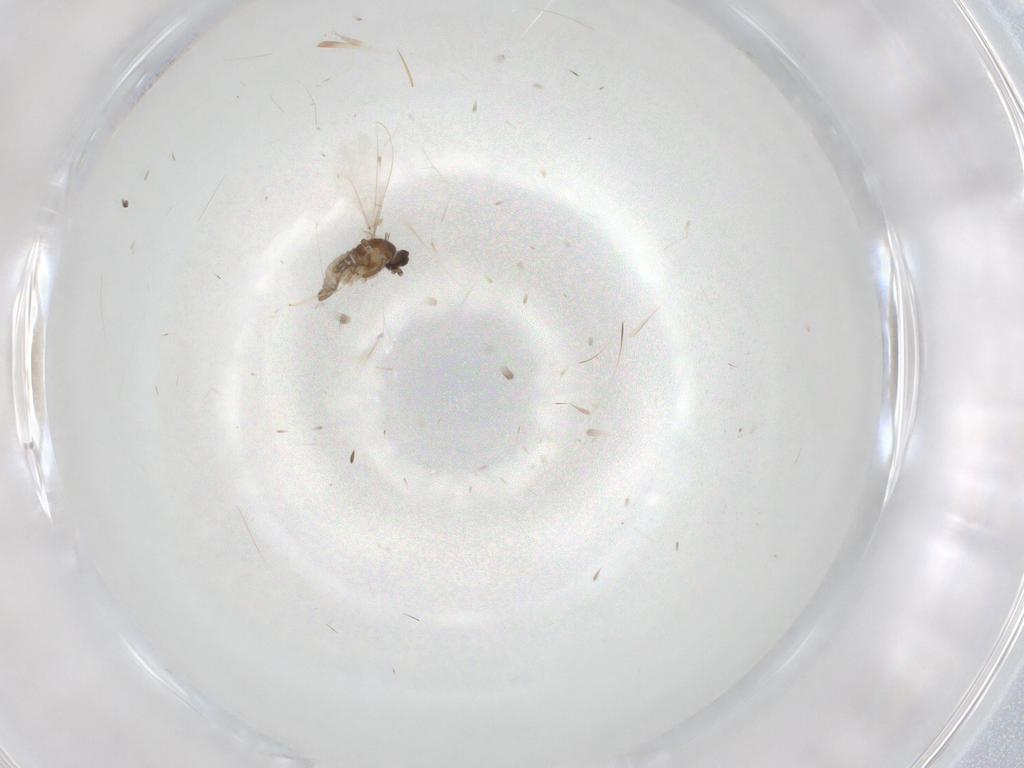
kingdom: Animalia
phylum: Arthropoda
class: Insecta
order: Diptera
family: Cecidomyiidae
